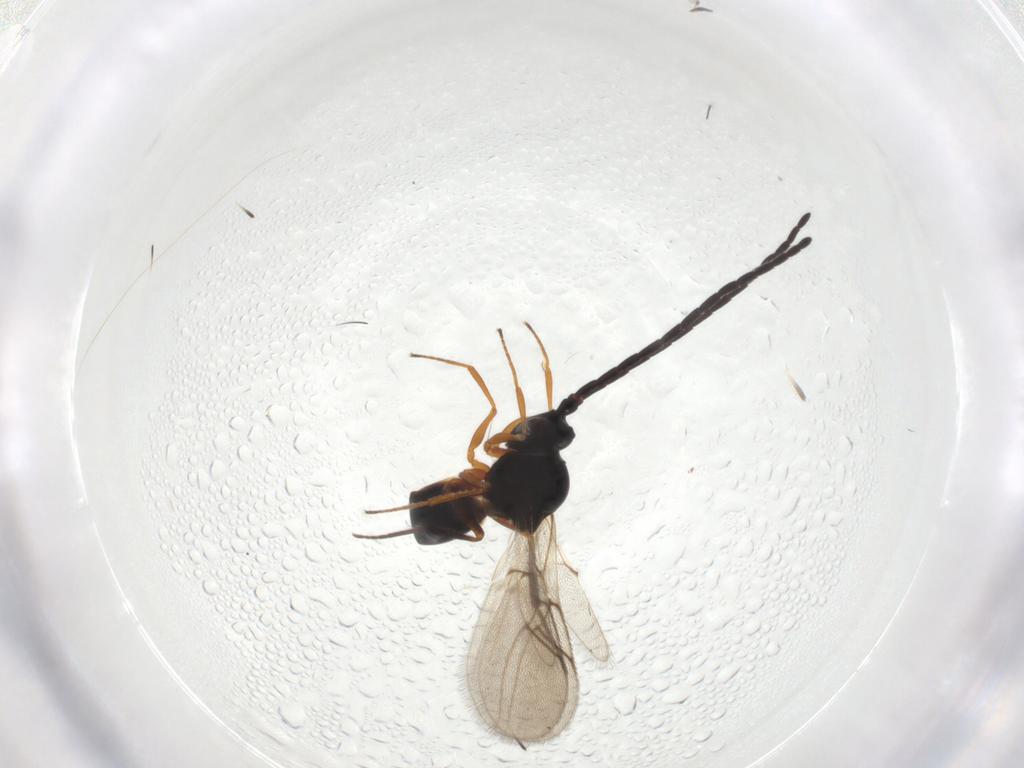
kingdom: Animalia
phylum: Arthropoda
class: Insecta
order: Hymenoptera
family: Figitidae
